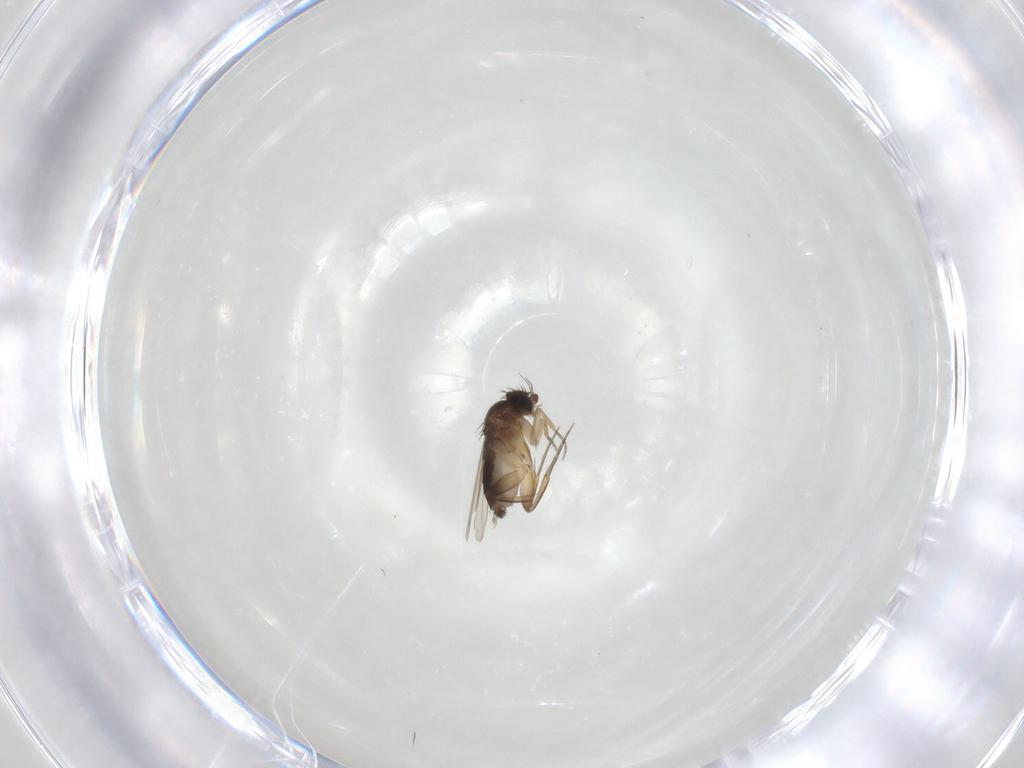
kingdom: Animalia
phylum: Arthropoda
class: Insecta
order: Diptera
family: Phoridae
